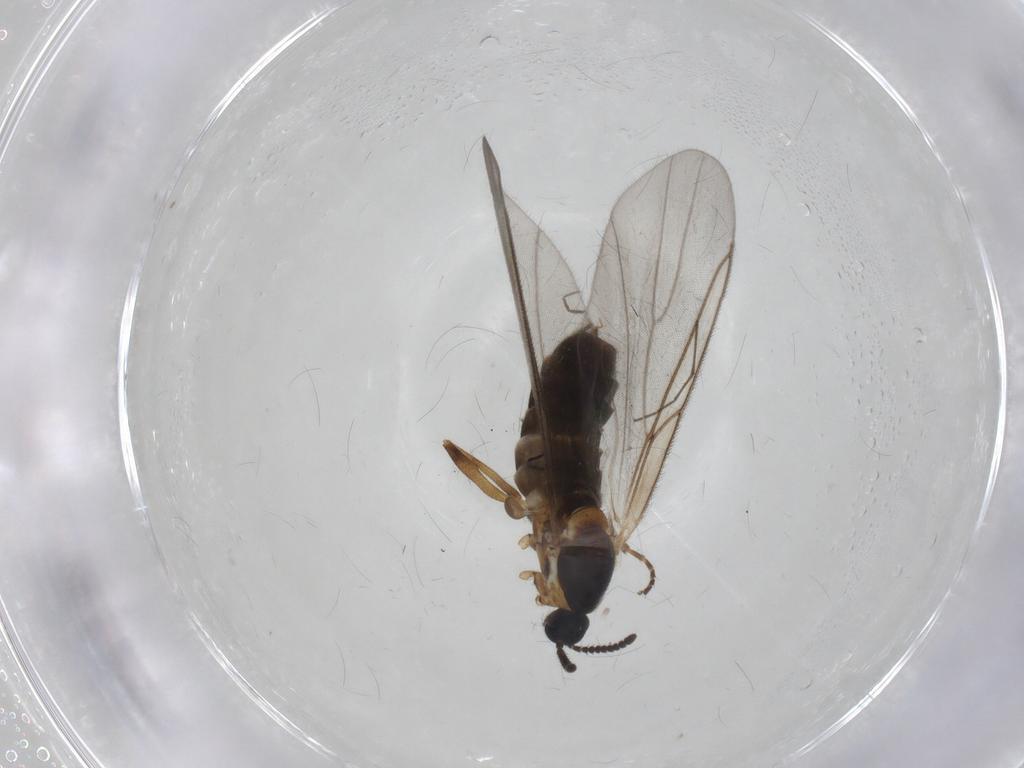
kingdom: Animalia
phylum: Arthropoda
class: Insecta
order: Diptera
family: Scatopsidae
